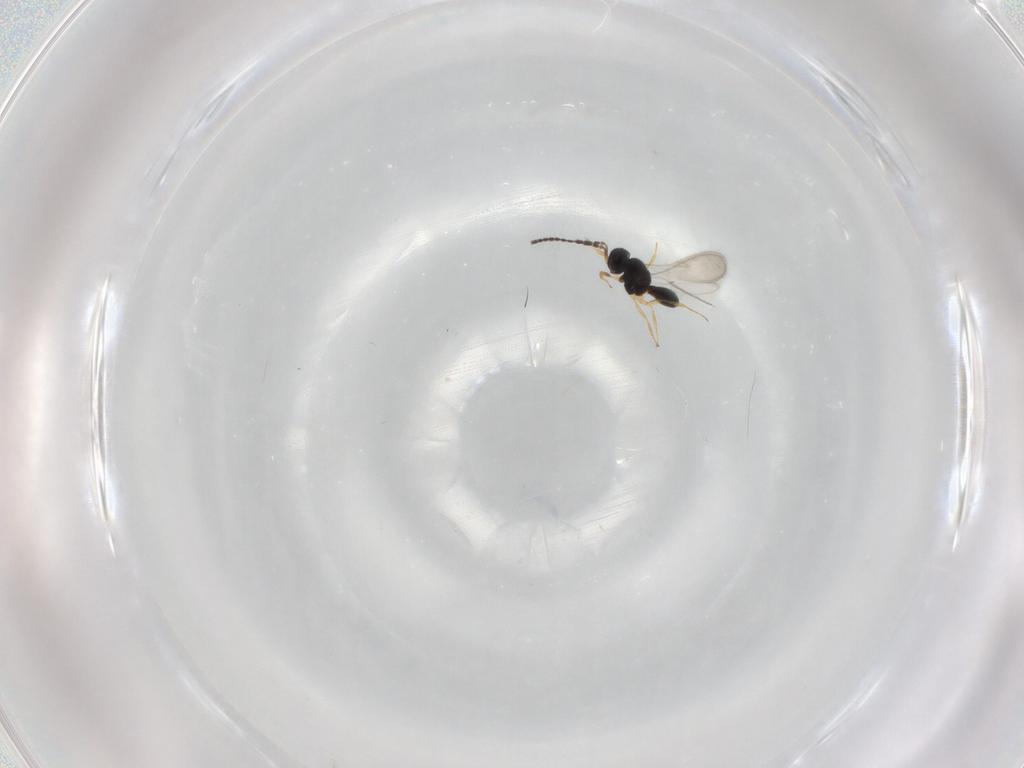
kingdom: Animalia
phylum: Arthropoda
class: Insecta
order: Hymenoptera
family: Scelionidae
